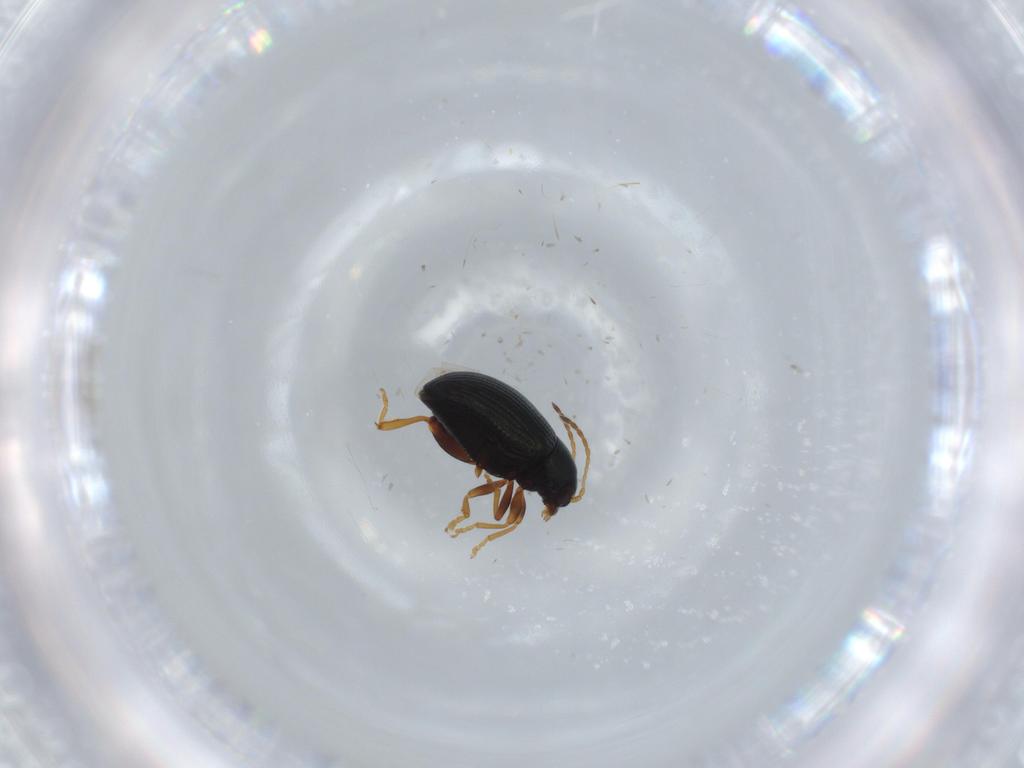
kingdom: Animalia
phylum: Arthropoda
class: Insecta
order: Coleoptera
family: Chrysomelidae
